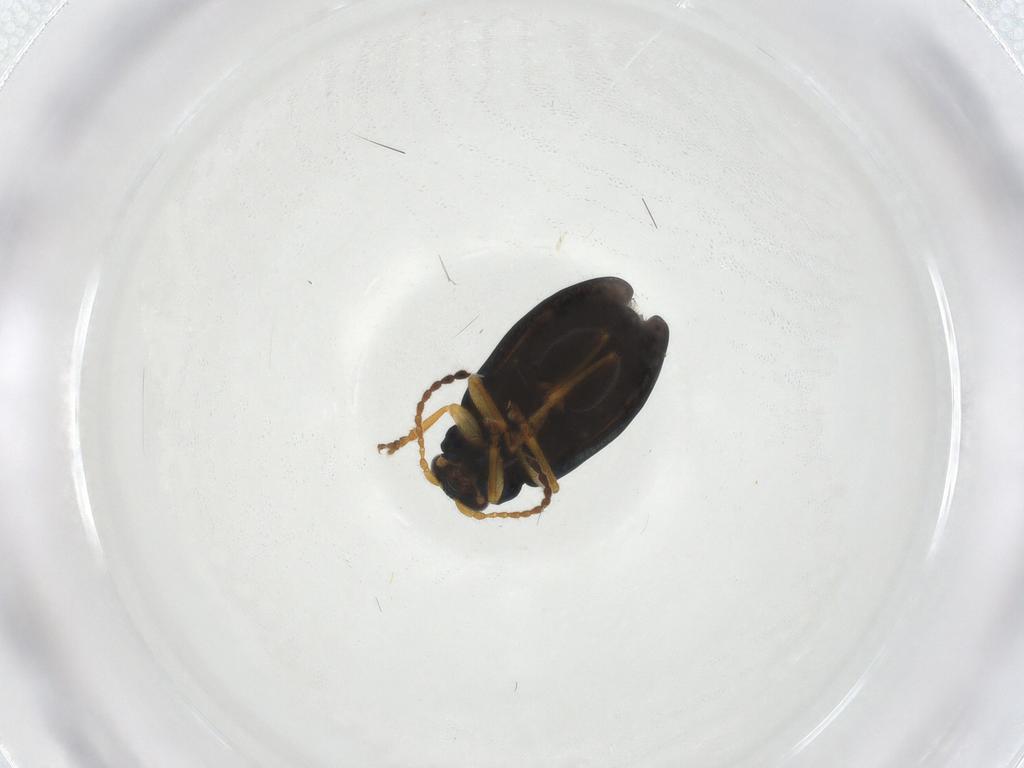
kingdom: Animalia
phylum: Arthropoda
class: Insecta
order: Coleoptera
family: Chrysomelidae
